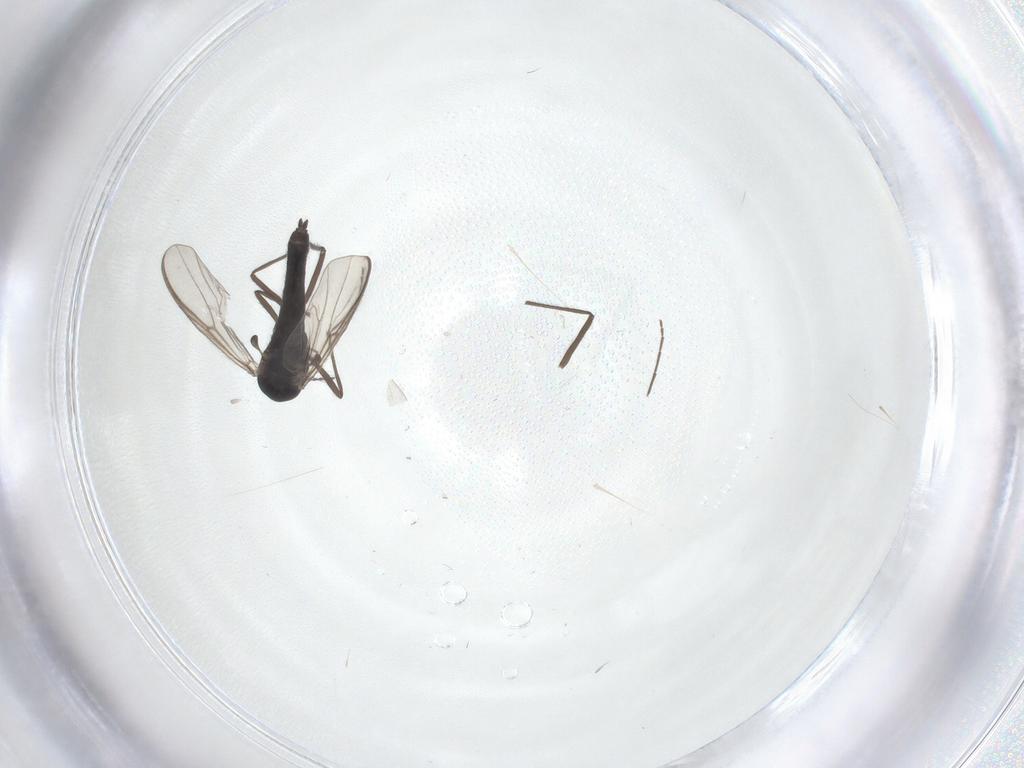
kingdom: Animalia
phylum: Arthropoda
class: Insecta
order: Diptera
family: Chironomidae
